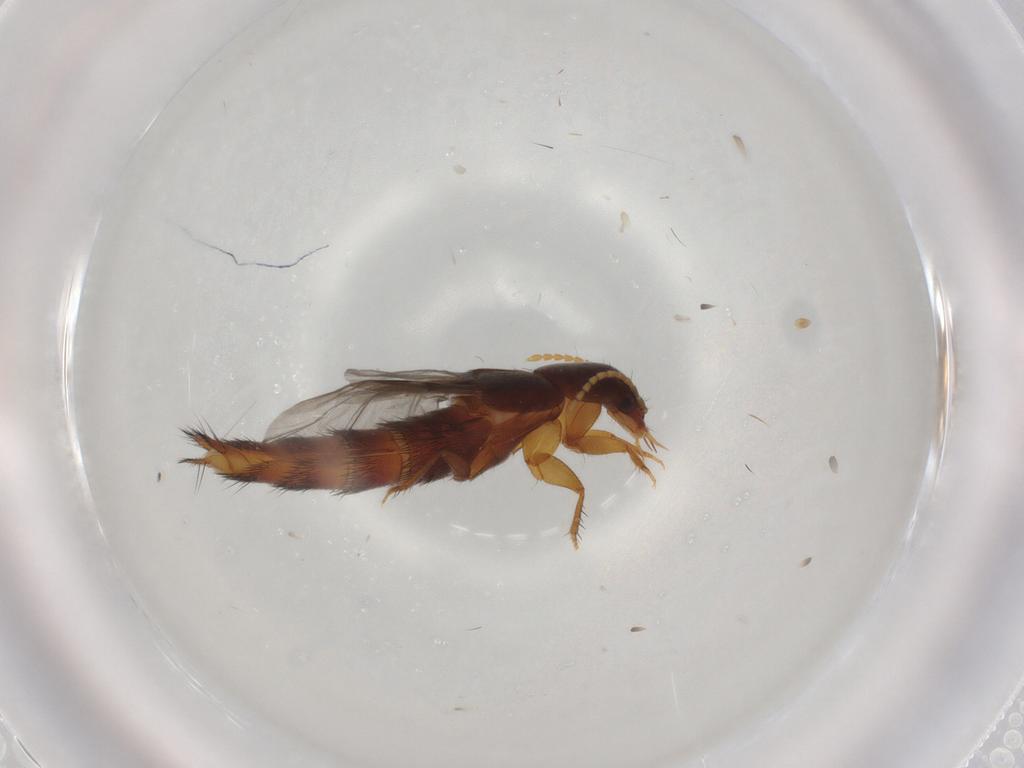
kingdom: Animalia
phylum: Arthropoda
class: Insecta
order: Coleoptera
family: Staphylinidae
